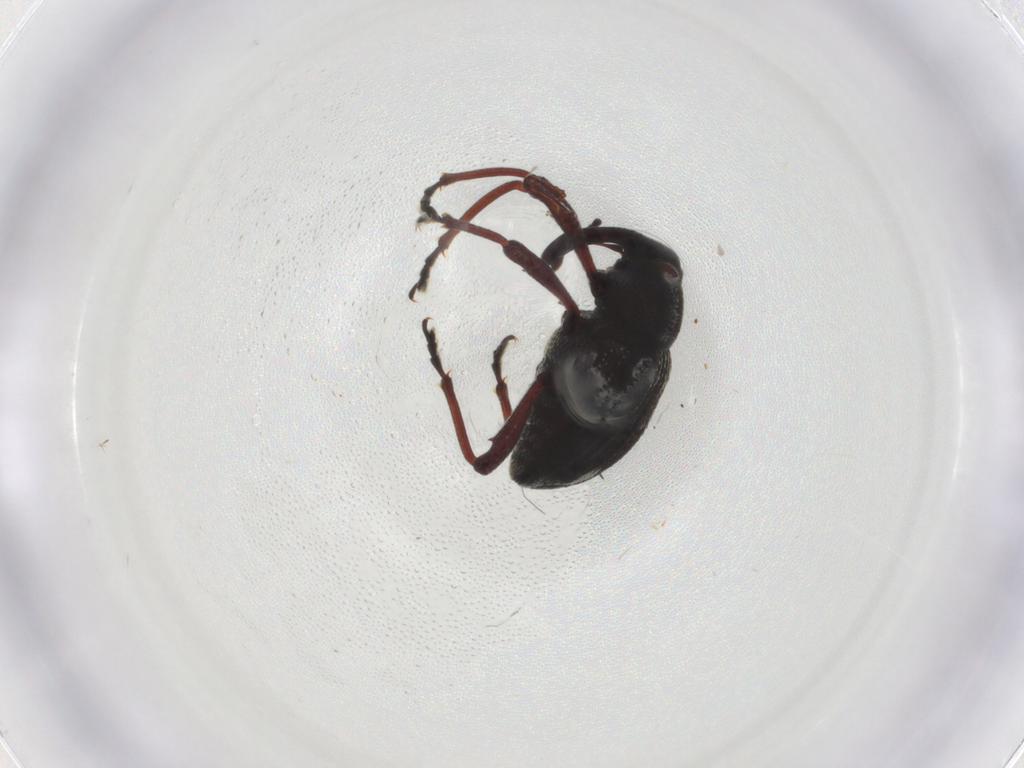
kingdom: Animalia
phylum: Arthropoda
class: Insecta
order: Coleoptera
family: Curculionidae
